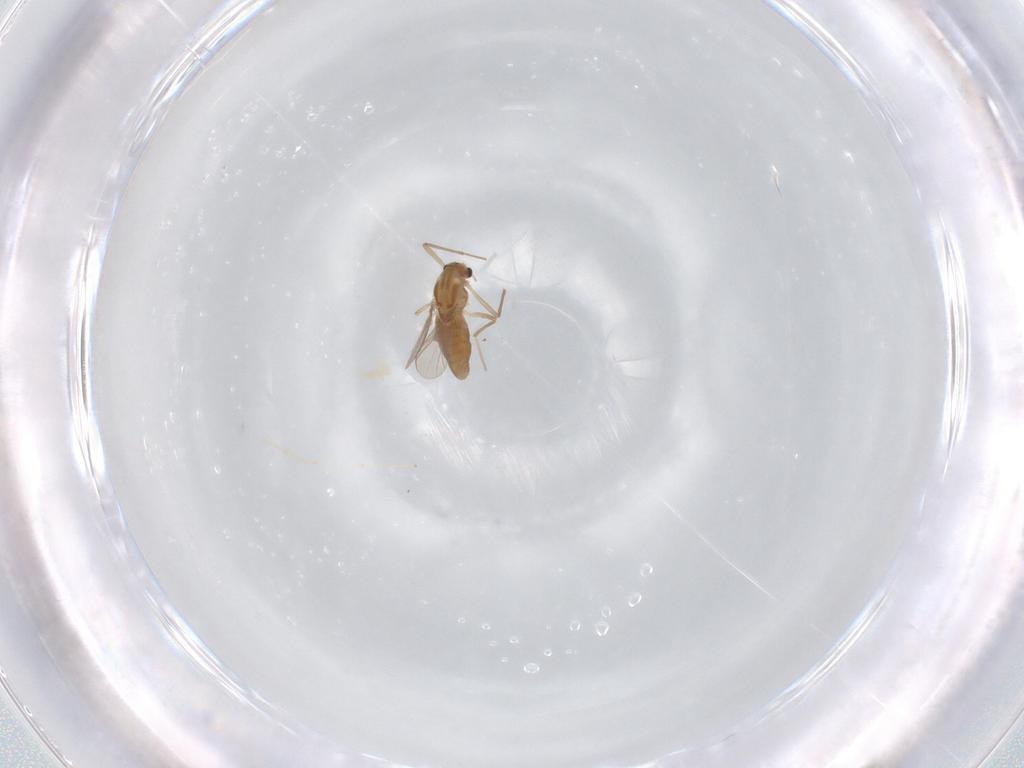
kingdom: Animalia
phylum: Arthropoda
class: Insecta
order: Diptera
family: Chironomidae
